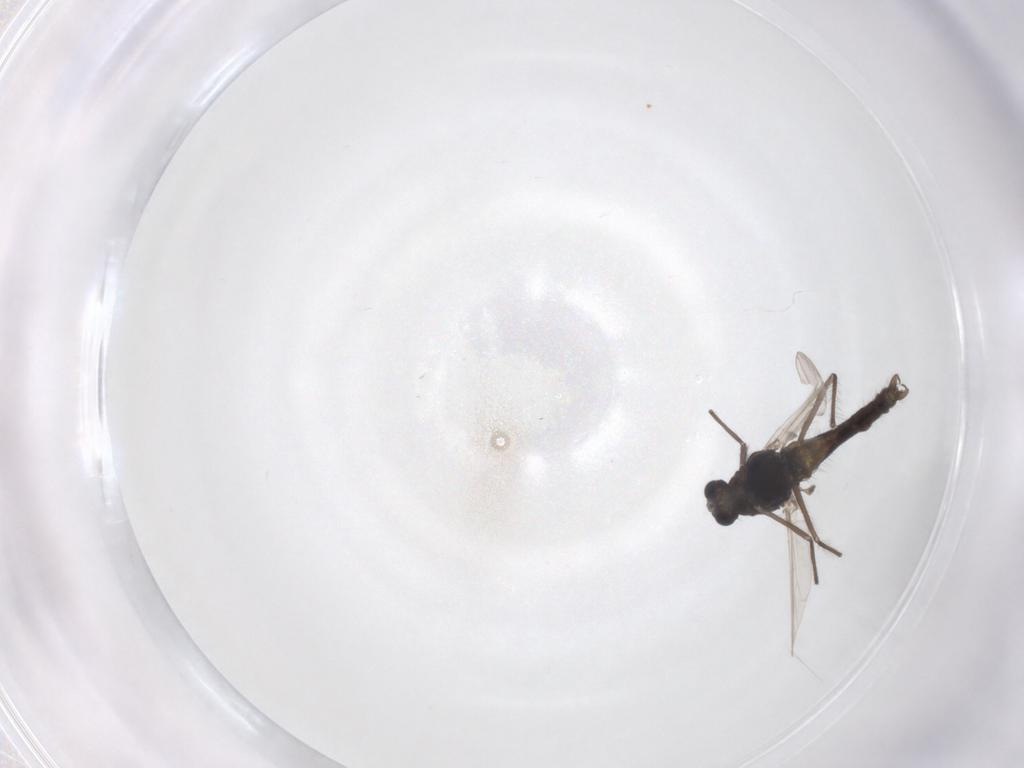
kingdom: Animalia
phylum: Arthropoda
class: Insecta
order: Diptera
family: Chironomidae
